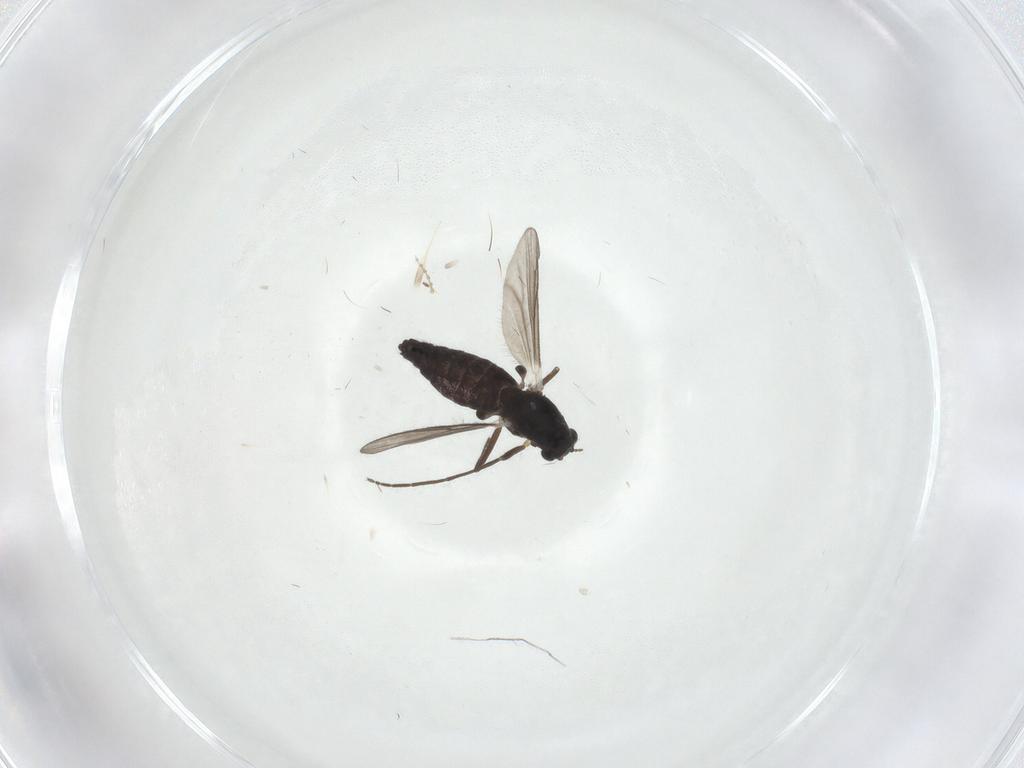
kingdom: Animalia
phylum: Arthropoda
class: Insecta
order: Diptera
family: Chironomidae
